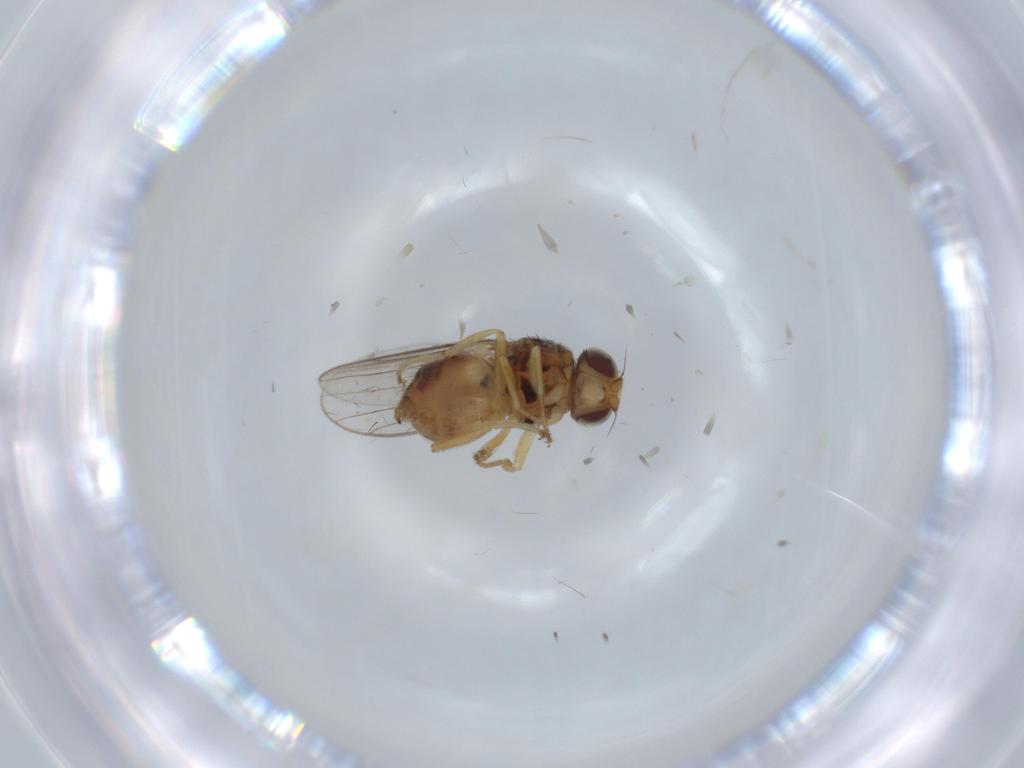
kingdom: Animalia
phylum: Arthropoda
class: Insecta
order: Diptera
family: Chloropidae
